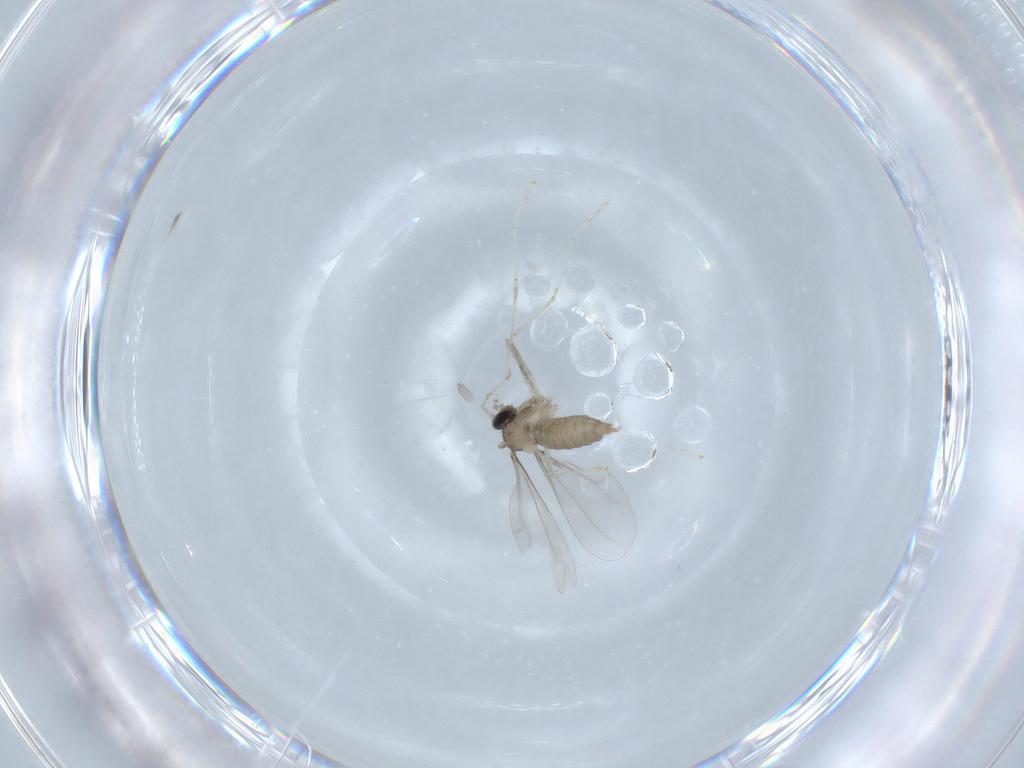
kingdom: Animalia
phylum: Arthropoda
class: Insecta
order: Diptera
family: Cecidomyiidae
